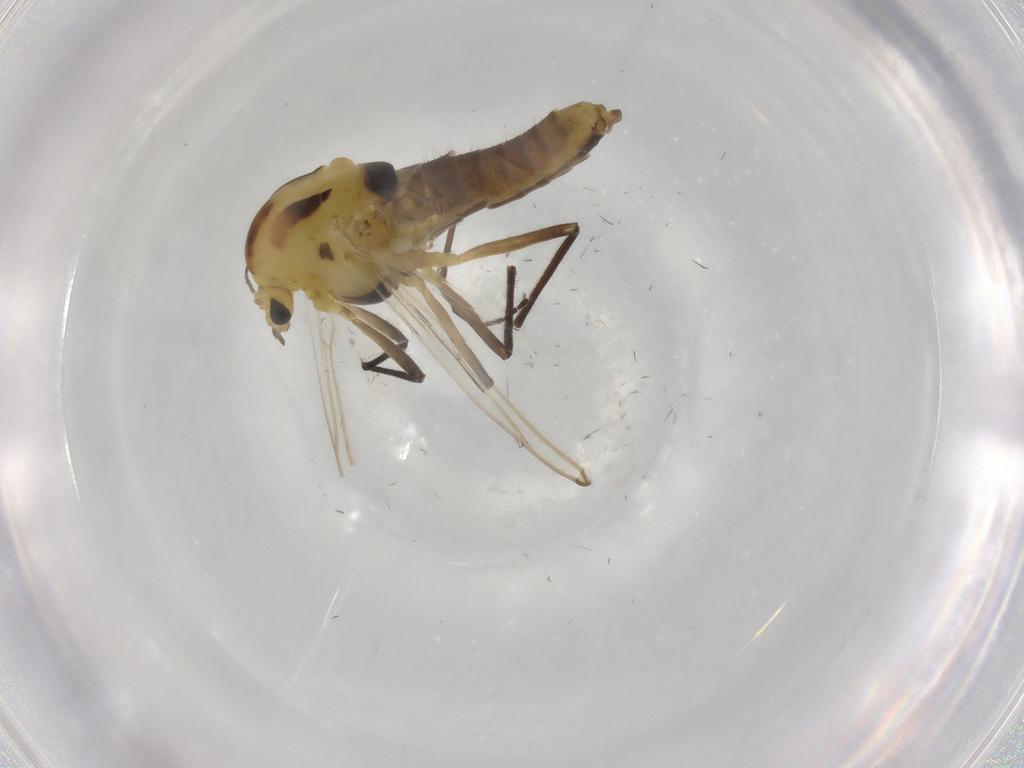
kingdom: Animalia
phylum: Arthropoda
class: Insecta
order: Diptera
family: Chironomidae
